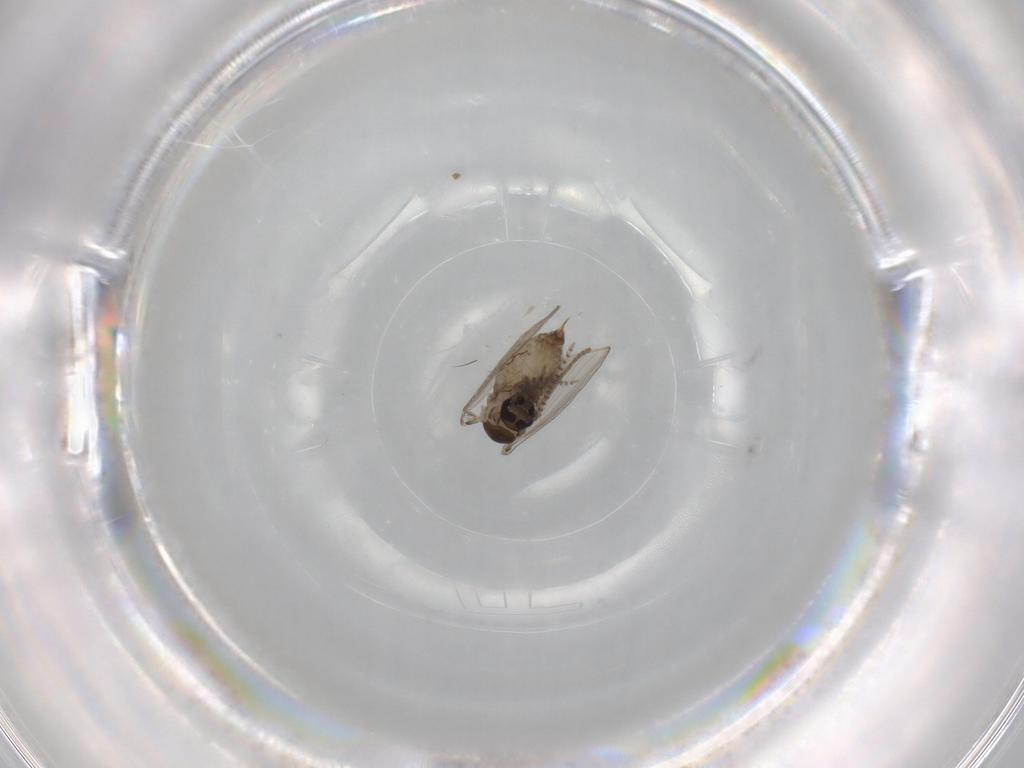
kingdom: Animalia
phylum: Arthropoda
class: Insecta
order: Diptera
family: Psychodidae
